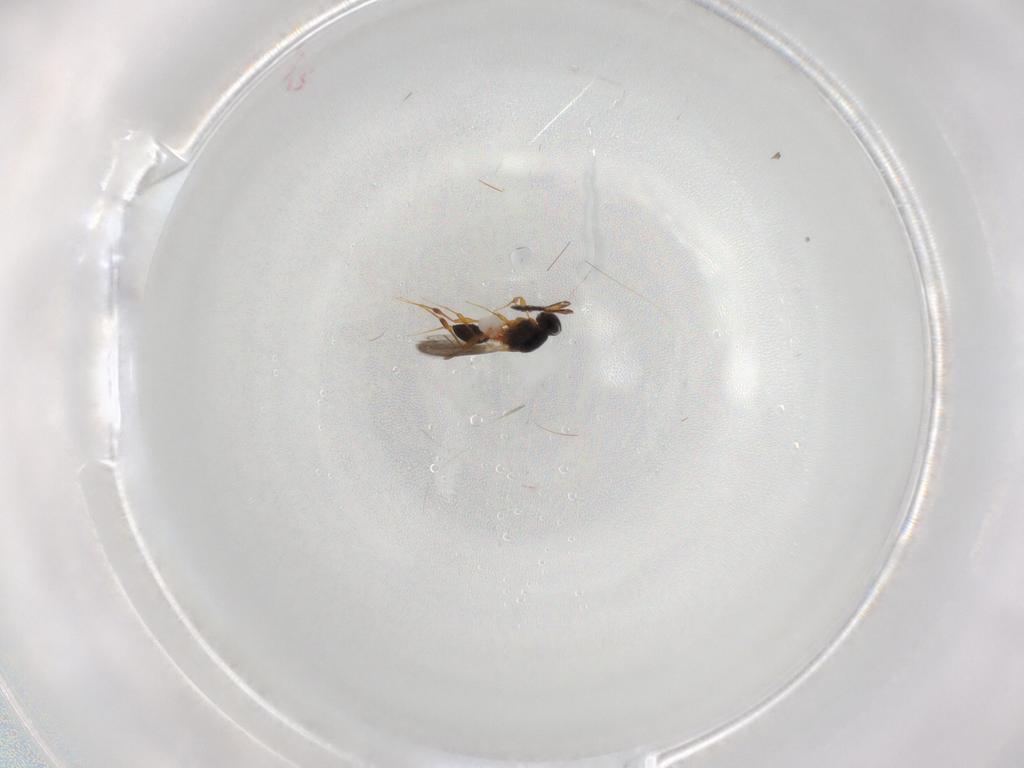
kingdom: Animalia
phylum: Arthropoda
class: Insecta
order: Hymenoptera
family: Platygastridae
